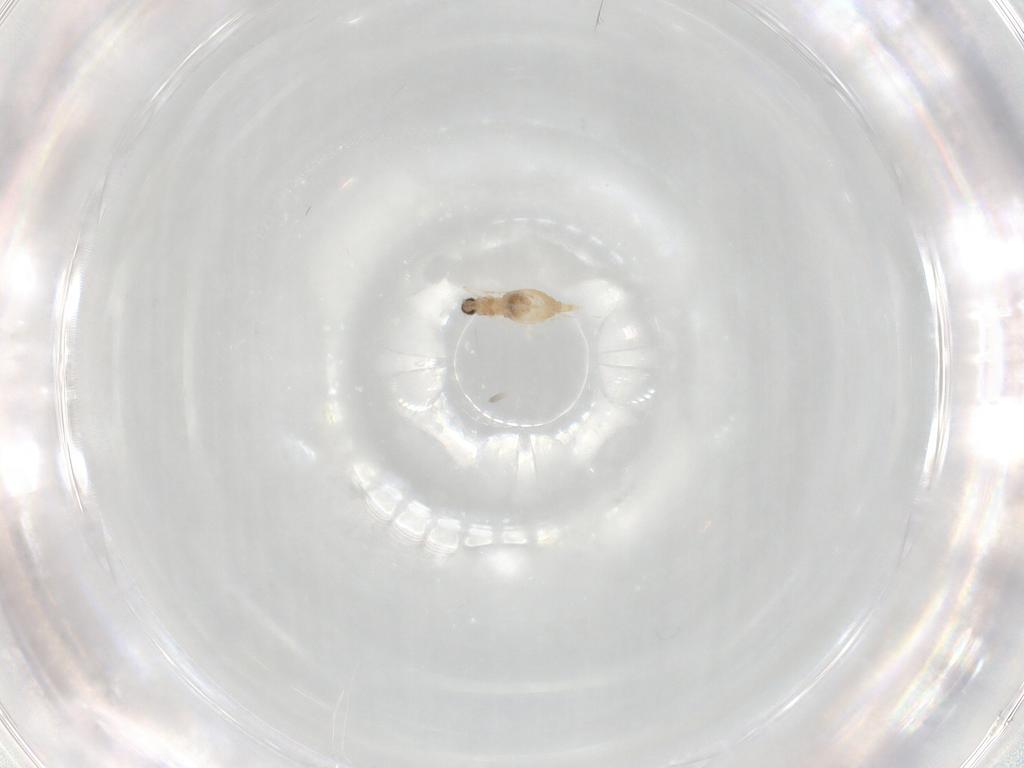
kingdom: Animalia
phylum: Arthropoda
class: Insecta
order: Diptera
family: Cecidomyiidae
